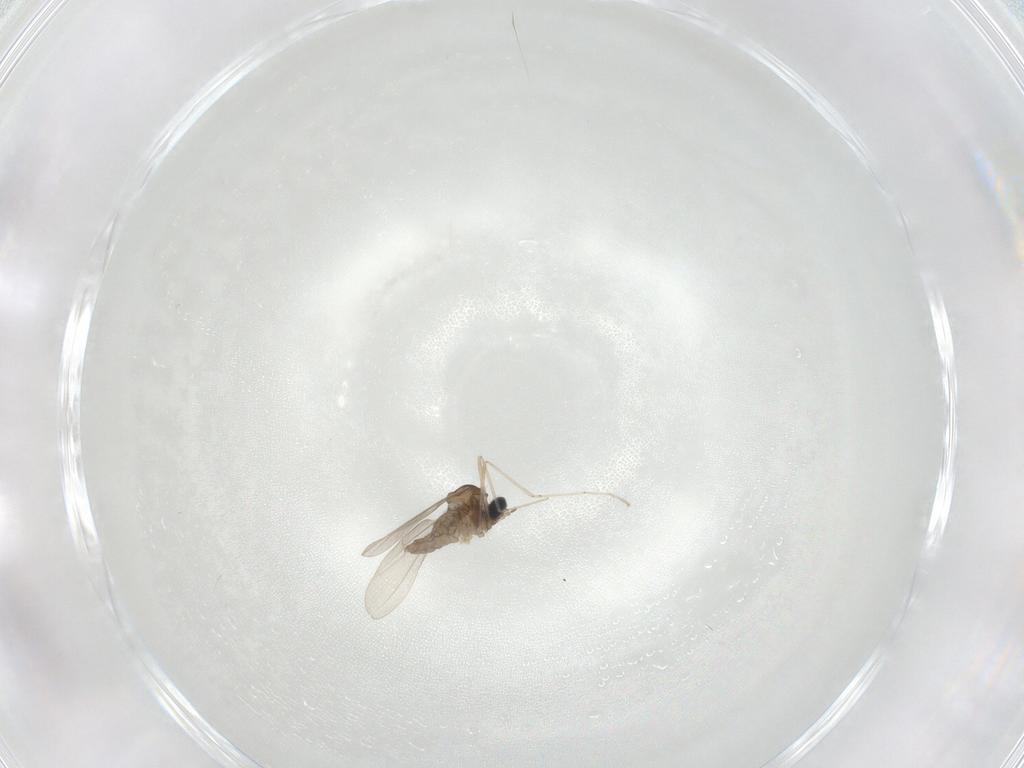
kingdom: Animalia
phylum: Arthropoda
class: Insecta
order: Diptera
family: Cecidomyiidae
